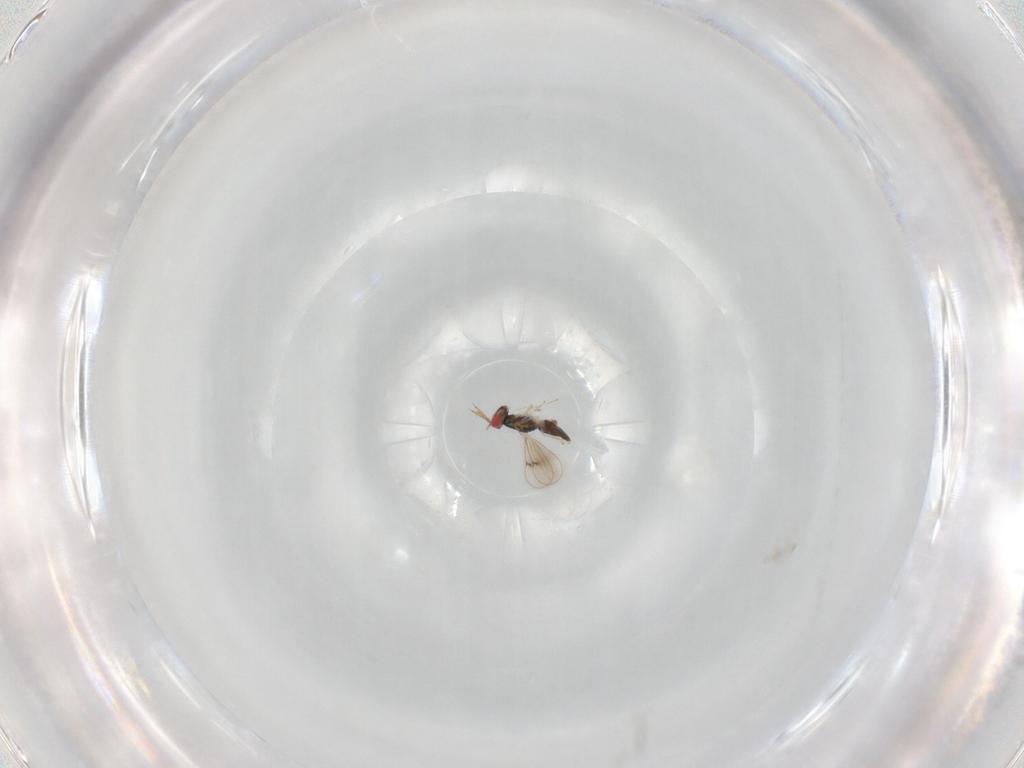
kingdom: Animalia
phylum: Arthropoda
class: Insecta
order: Hymenoptera
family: Eulophidae
